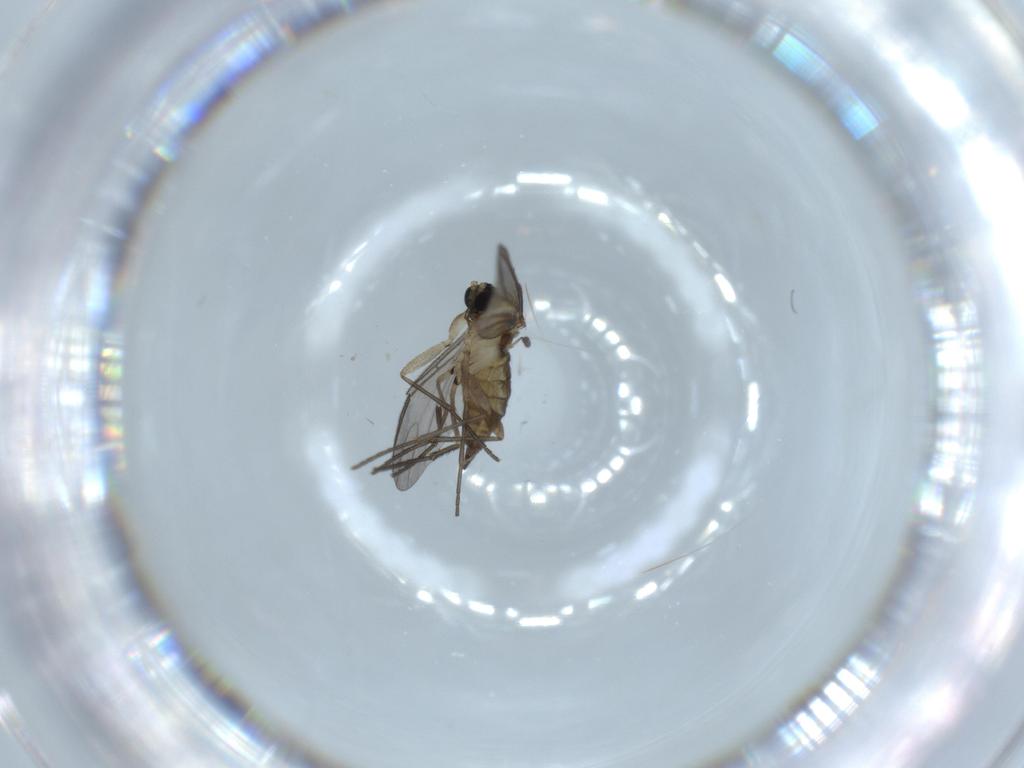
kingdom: Animalia
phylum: Arthropoda
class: Insecta
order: Diptera
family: Sciaridae
